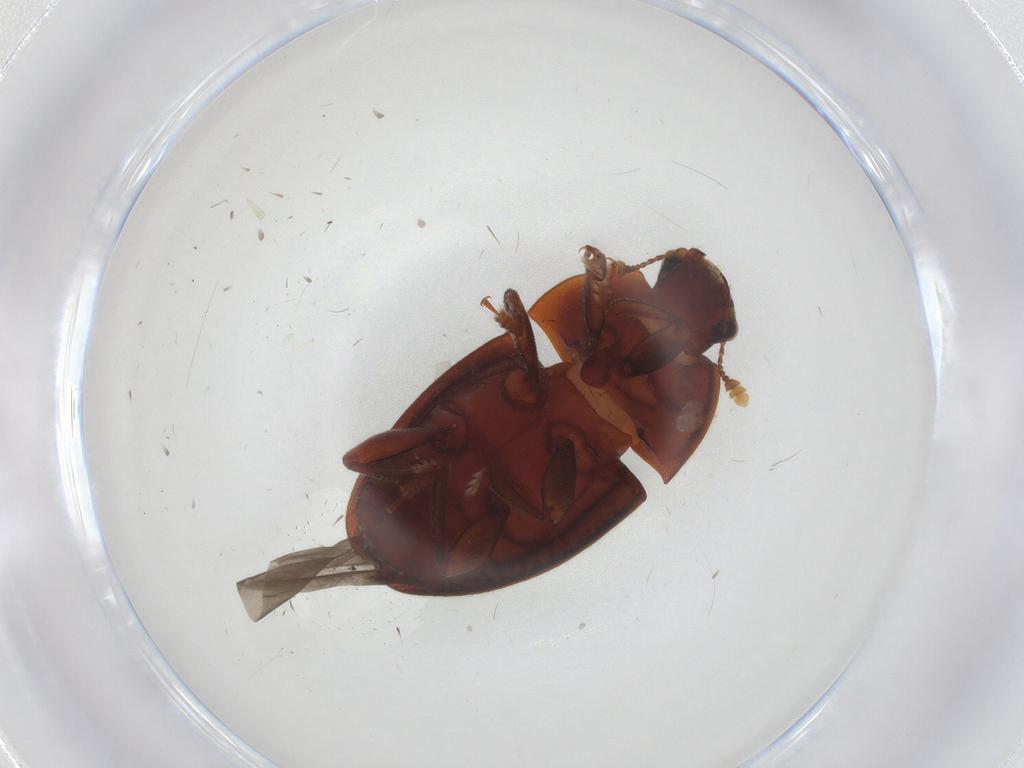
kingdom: Animalia
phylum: Arthropoda
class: Insecta
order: Coleoptera
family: Nitidulidae
